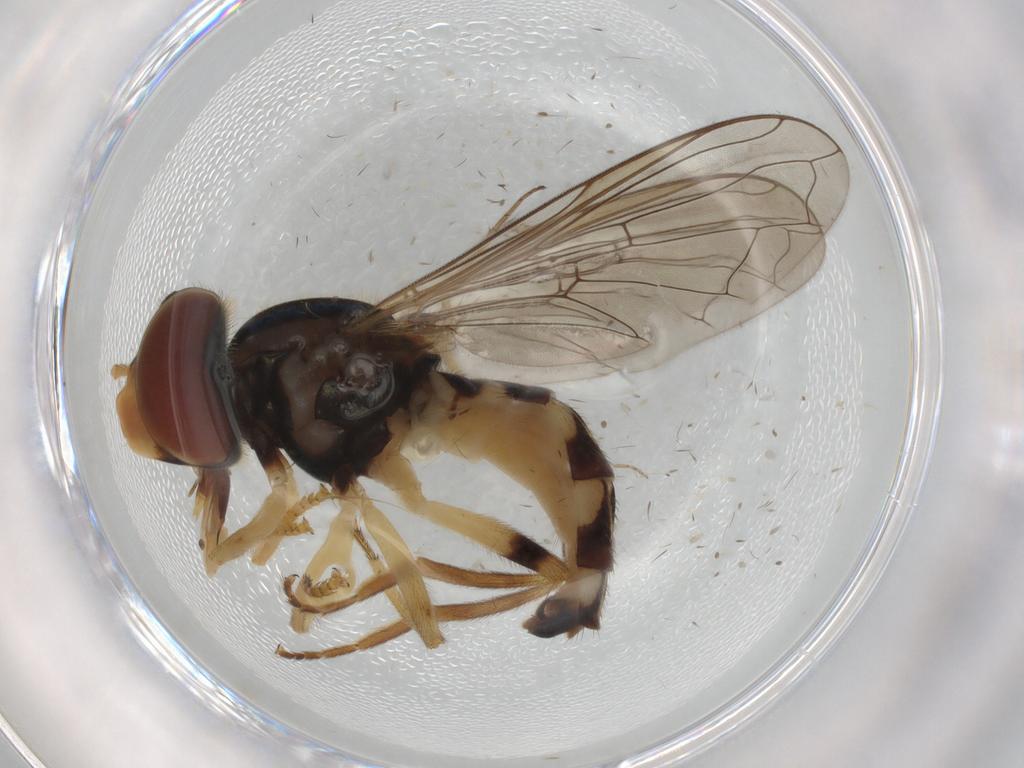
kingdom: Animalia
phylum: Arthropoda
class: Insecta
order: Diptera
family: Syrphidae
